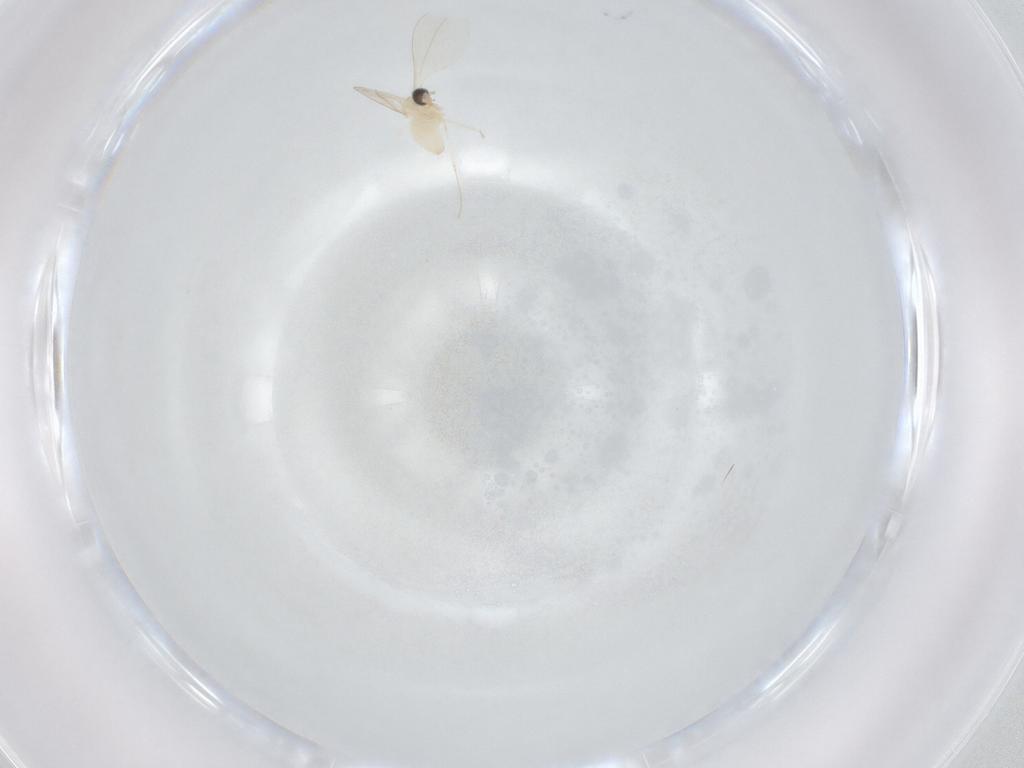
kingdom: Animalia
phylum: Arthropoda
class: Insecta
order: Diptera
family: Cecidomyiidae
